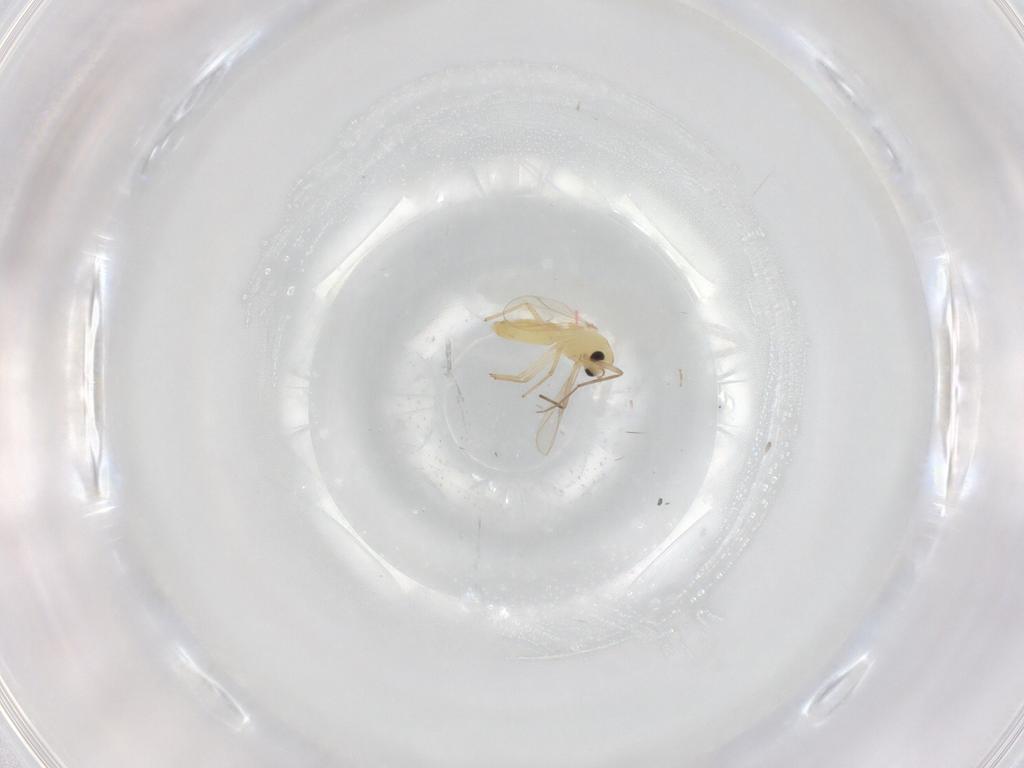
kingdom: Animalia
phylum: Arthropoda
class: Insecta
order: Diptera
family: Chironomidae
